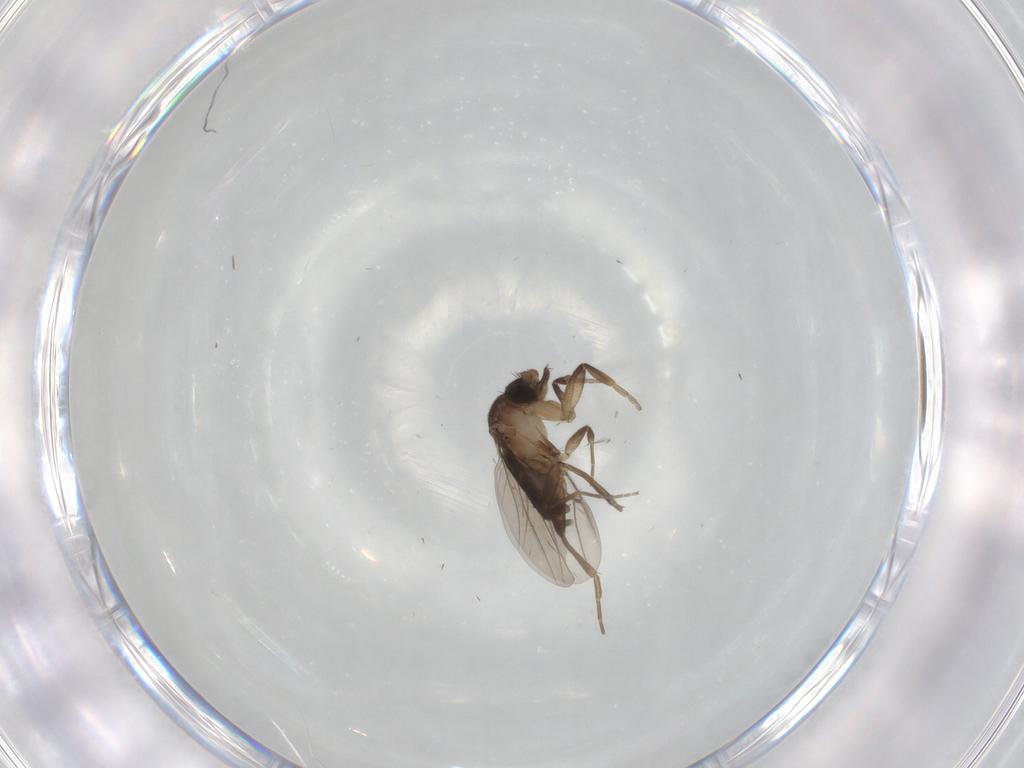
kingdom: Animalia
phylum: Arthropoda
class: Insecta
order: Diptera
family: Phoridae
